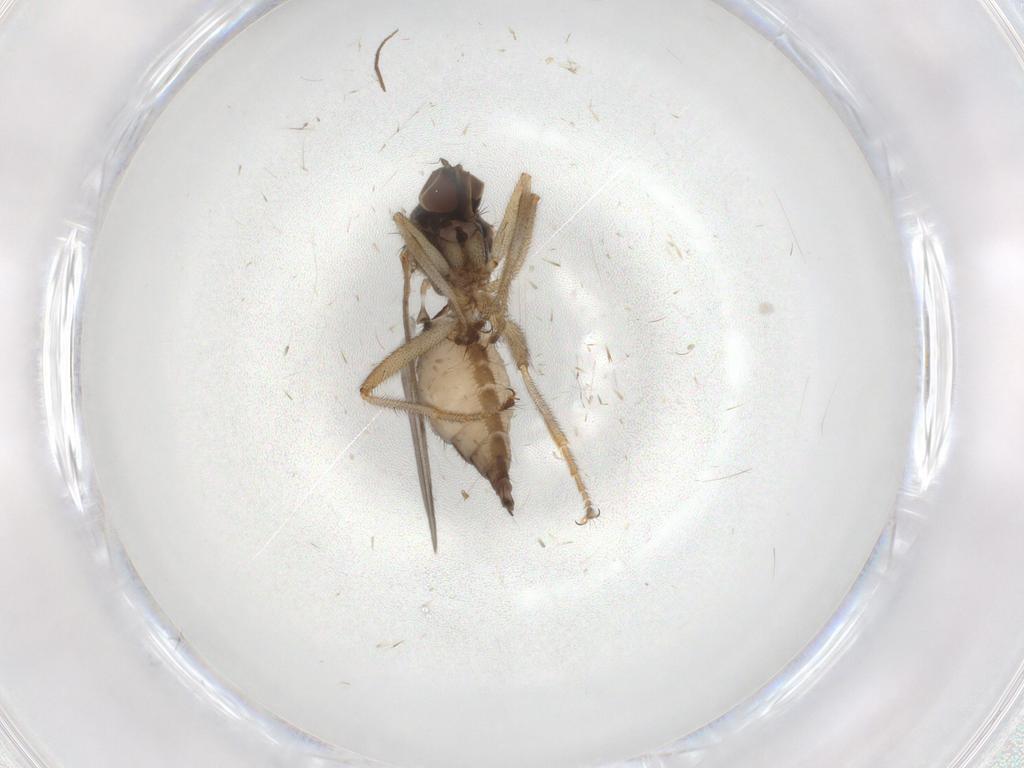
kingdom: Animalia
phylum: Arthropoda
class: Insecta
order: Diptera
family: Hybotidae
